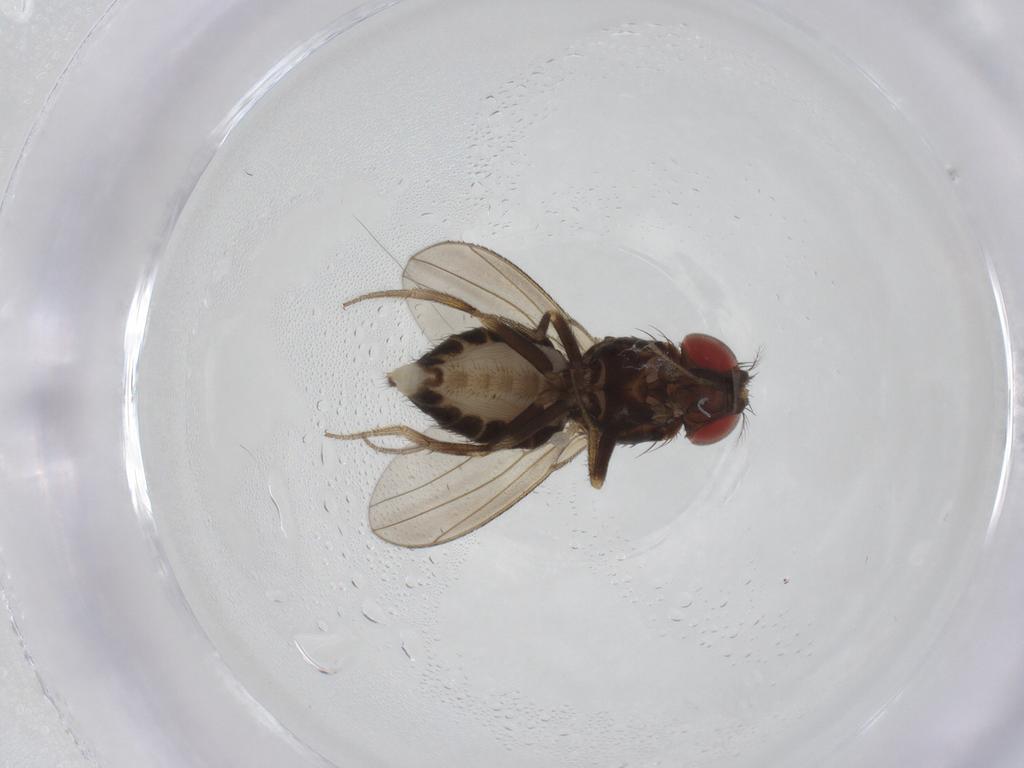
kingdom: Animalia
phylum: Arthropoda
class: Insecta
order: Diptera
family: Drosophilidae
